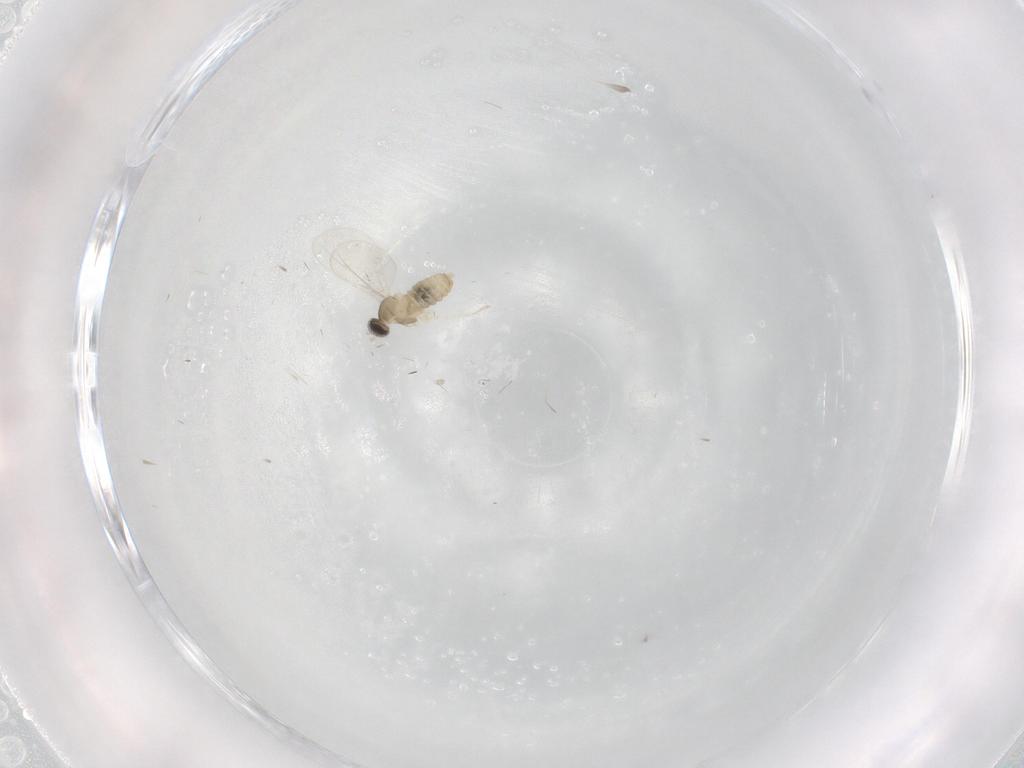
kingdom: Animalia
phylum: Arthropoda
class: Insecta
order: Diptera
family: Cecidomyiidae
